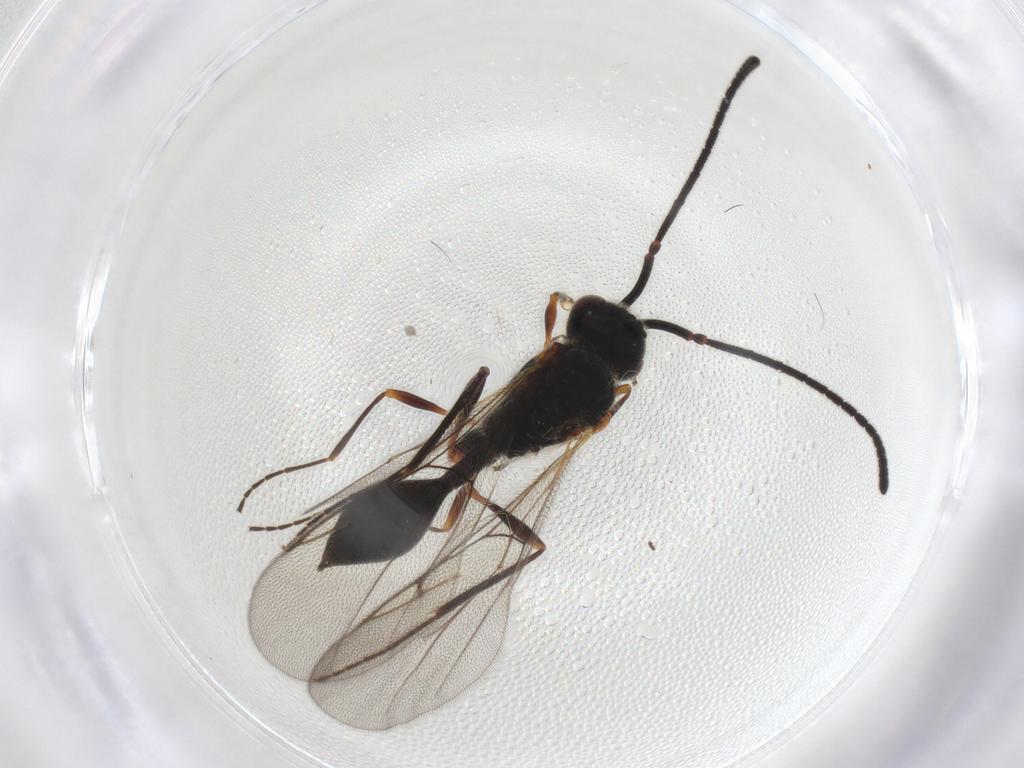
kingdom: Animalia
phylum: Arthropoda
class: Insecta
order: Hymenoptera
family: Diapriidae
